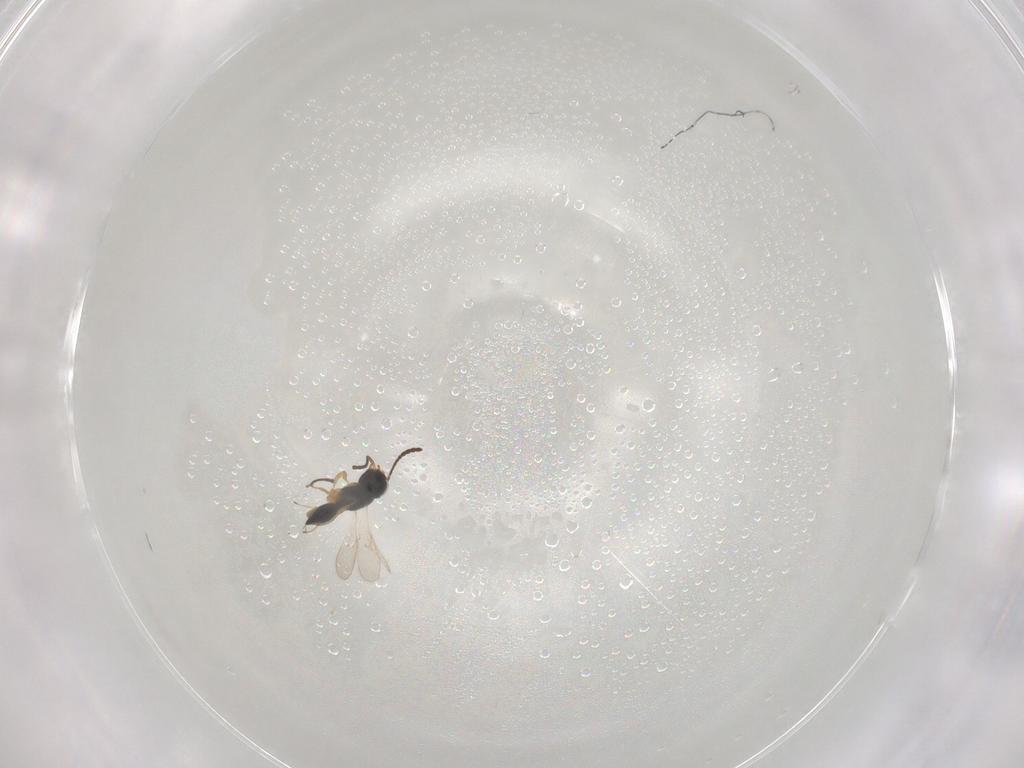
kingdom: Animalia
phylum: Arthropoda
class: Insecta
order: Hymenoptera
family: Scelionidae
